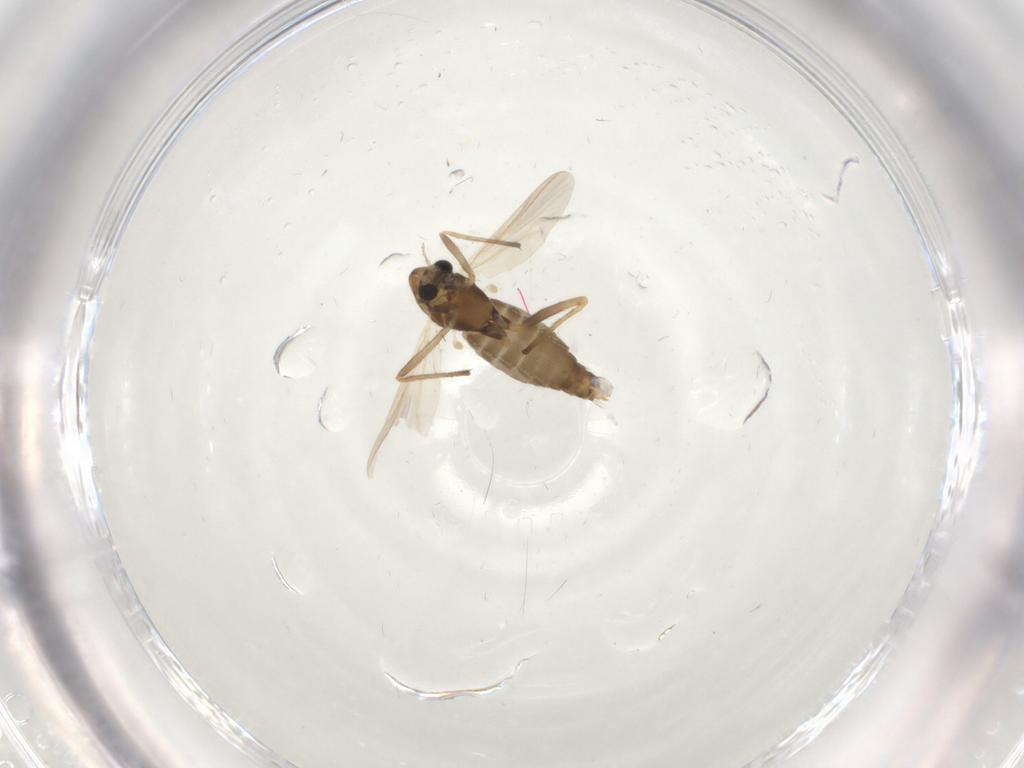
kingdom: Animalia
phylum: Arthropoda
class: Insecta
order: Diptera
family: Chironomidae
